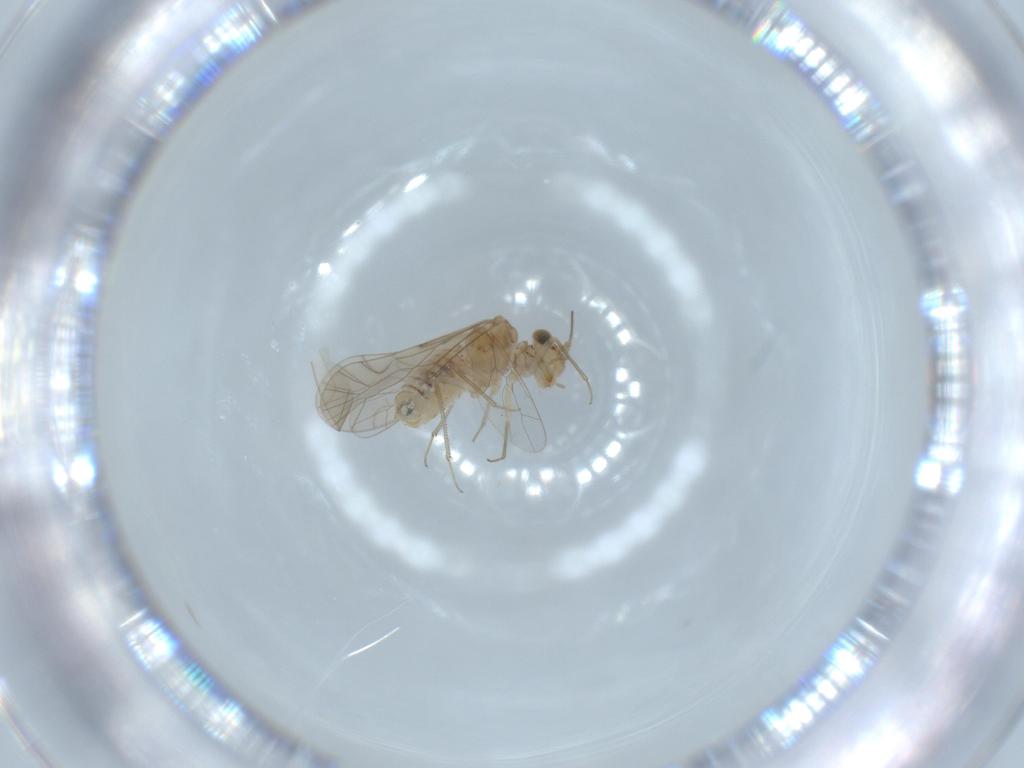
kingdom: Animalia
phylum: Arthropoda
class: Insecta
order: Psocodea
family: Lachesillidae
